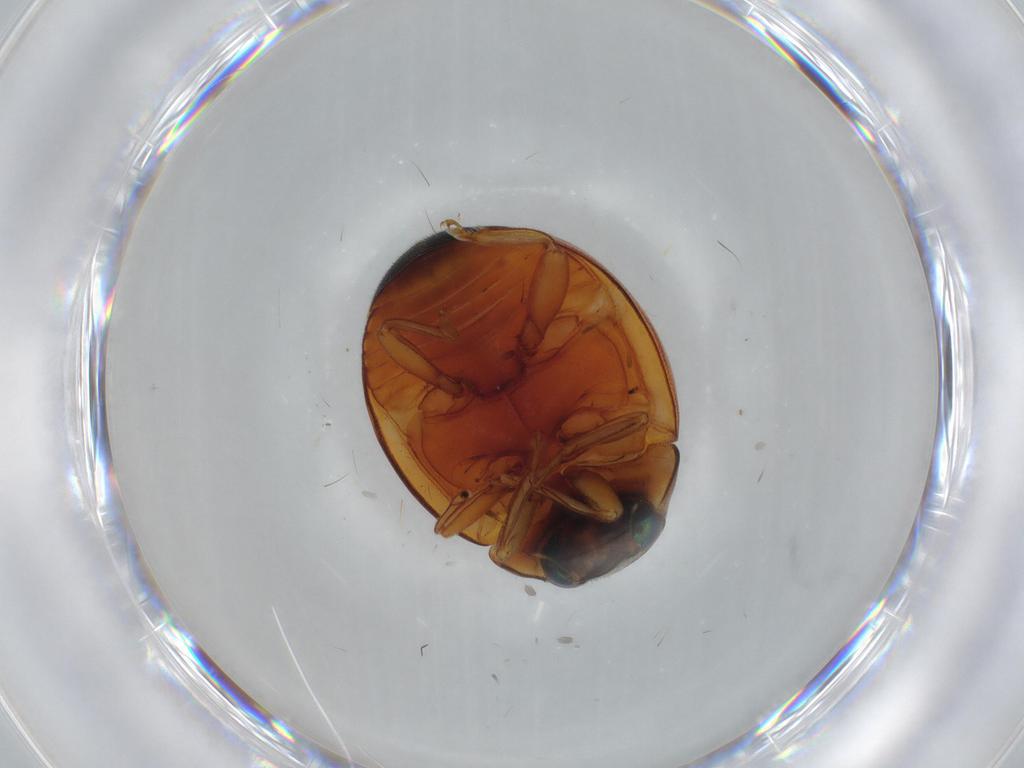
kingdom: Animalia
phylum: Arthropoda
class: Insecta
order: Coleoptera
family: Coccinellidae
